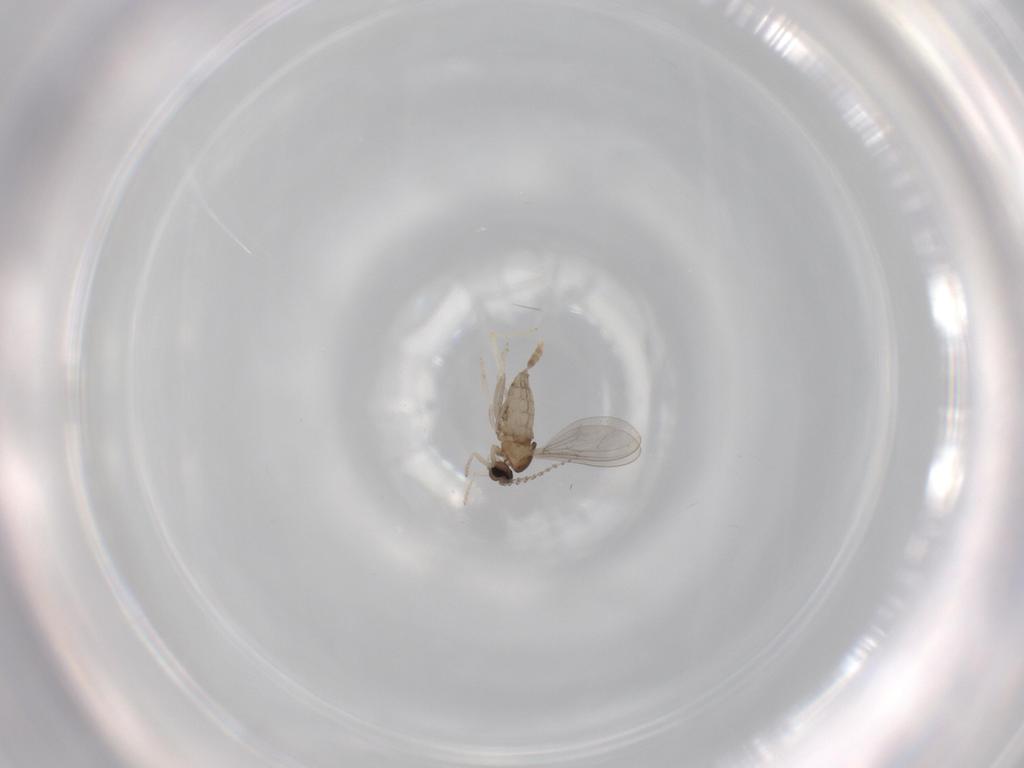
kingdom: Animalia
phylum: Arthropoda
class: Insecta
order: Diptera
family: Cecidomyiidae
